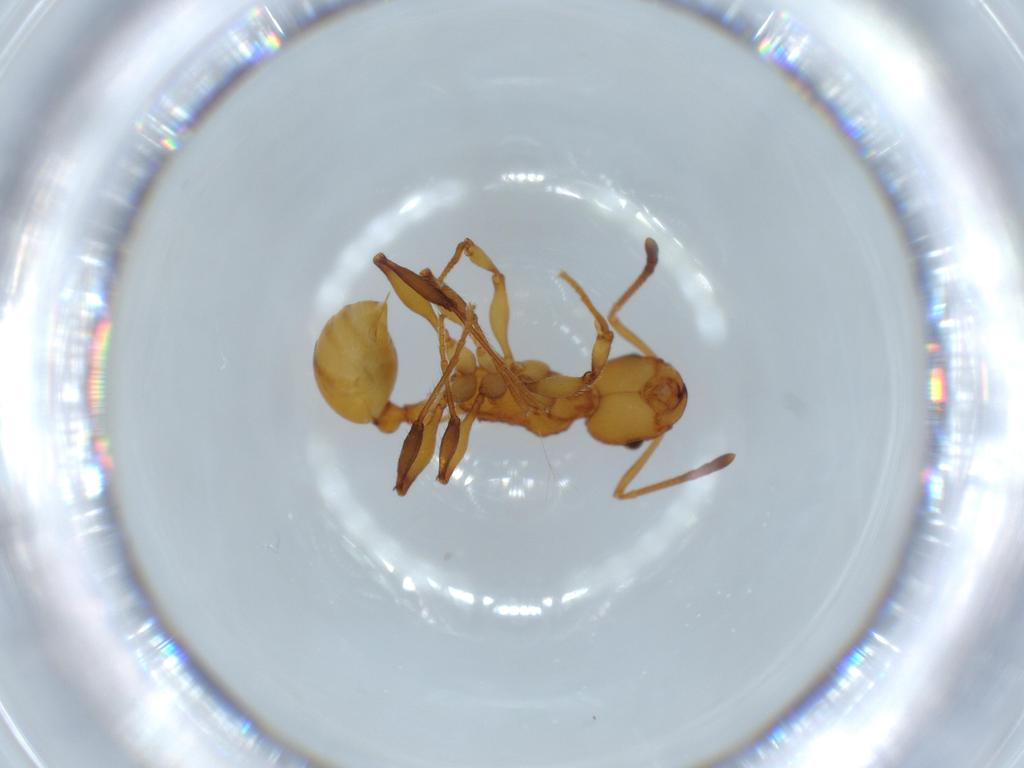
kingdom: Animalia
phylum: Arthropoda
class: Insecta
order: Hymenoptera
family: Formicidae
